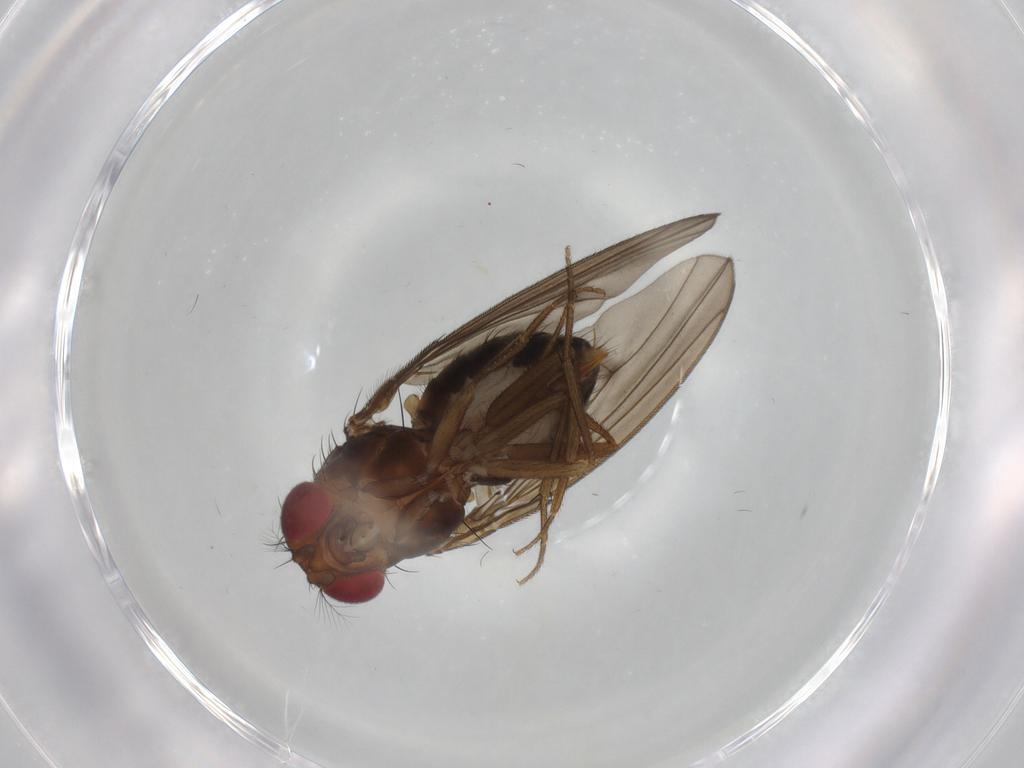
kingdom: Animalia
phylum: Arthropoda
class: Insecta
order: Diptera
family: Drosophilidae
